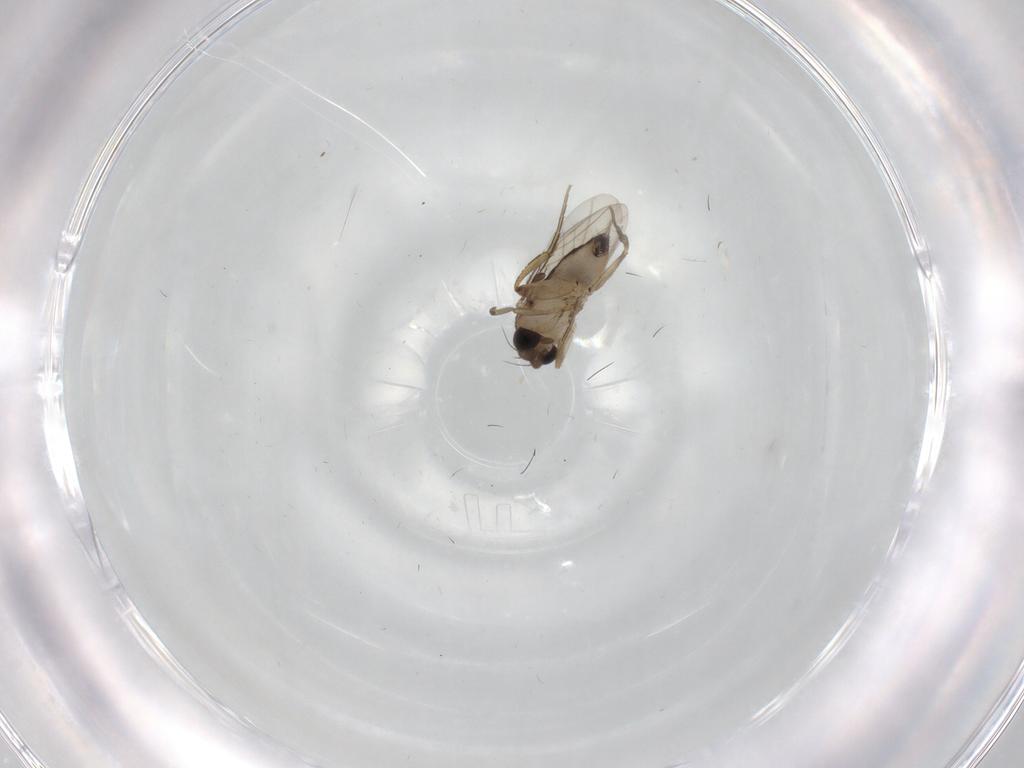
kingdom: Animalia
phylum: Arthropoda
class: Insecta
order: Diptera
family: Phoridae
